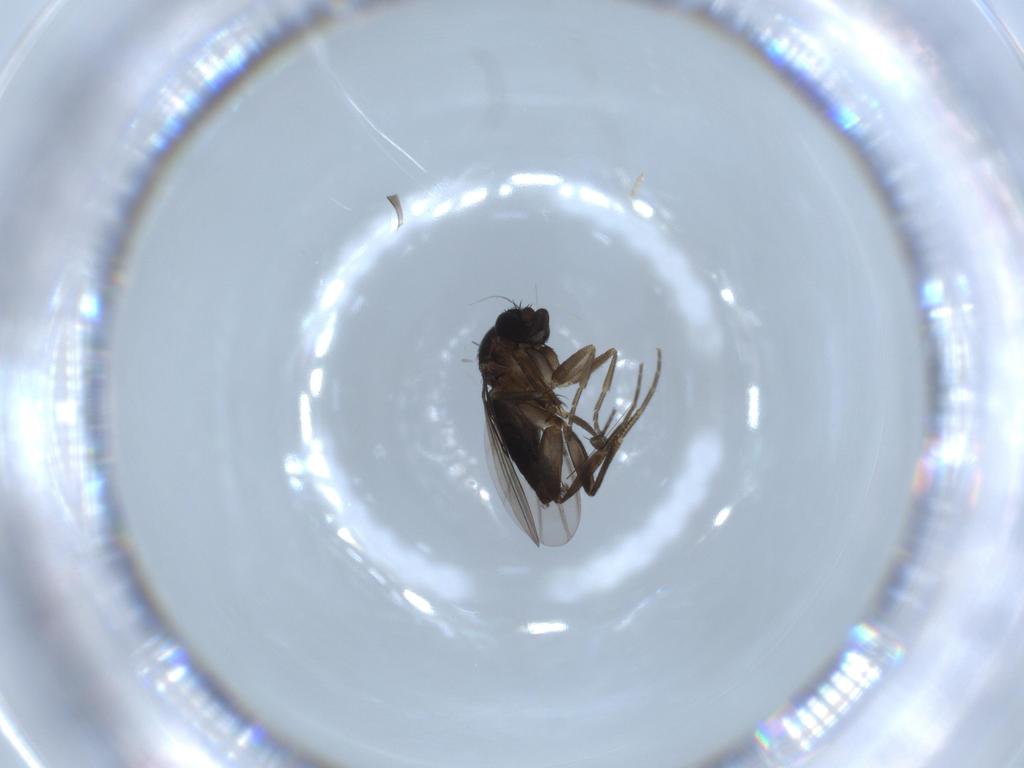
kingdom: Animalia
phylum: Arthropoda
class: Insecta
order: Diptera
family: Phoridae
